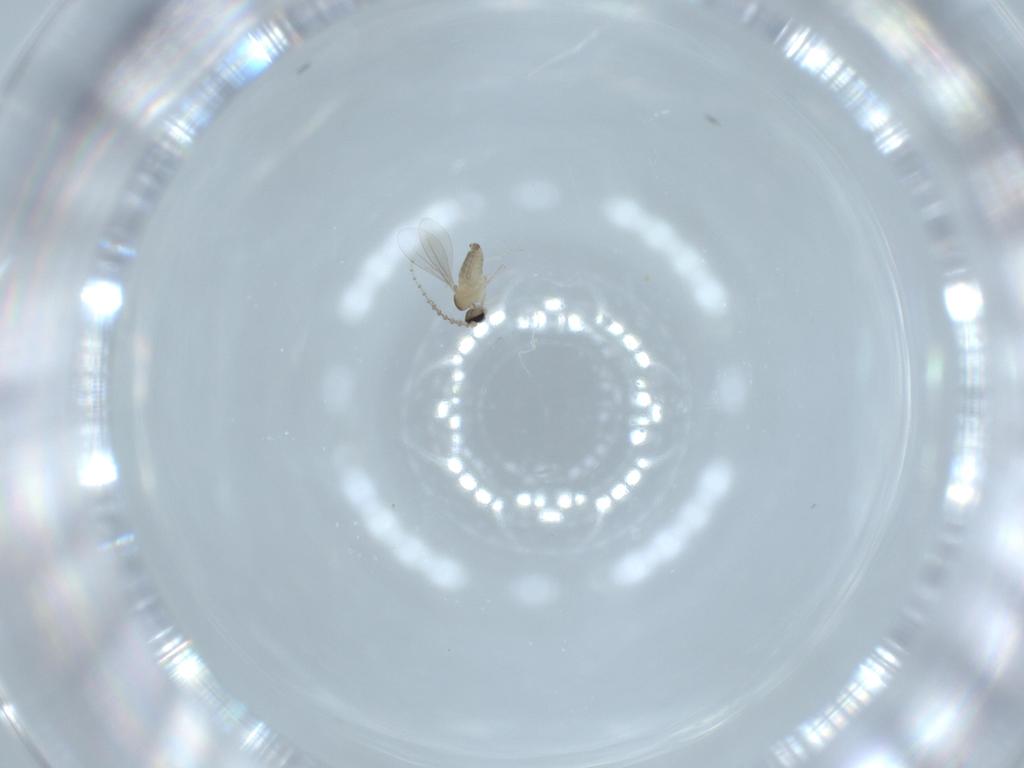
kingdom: Animalia
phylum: Arthropoda
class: Insecta
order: Diptera
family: Cecidomyiidae
